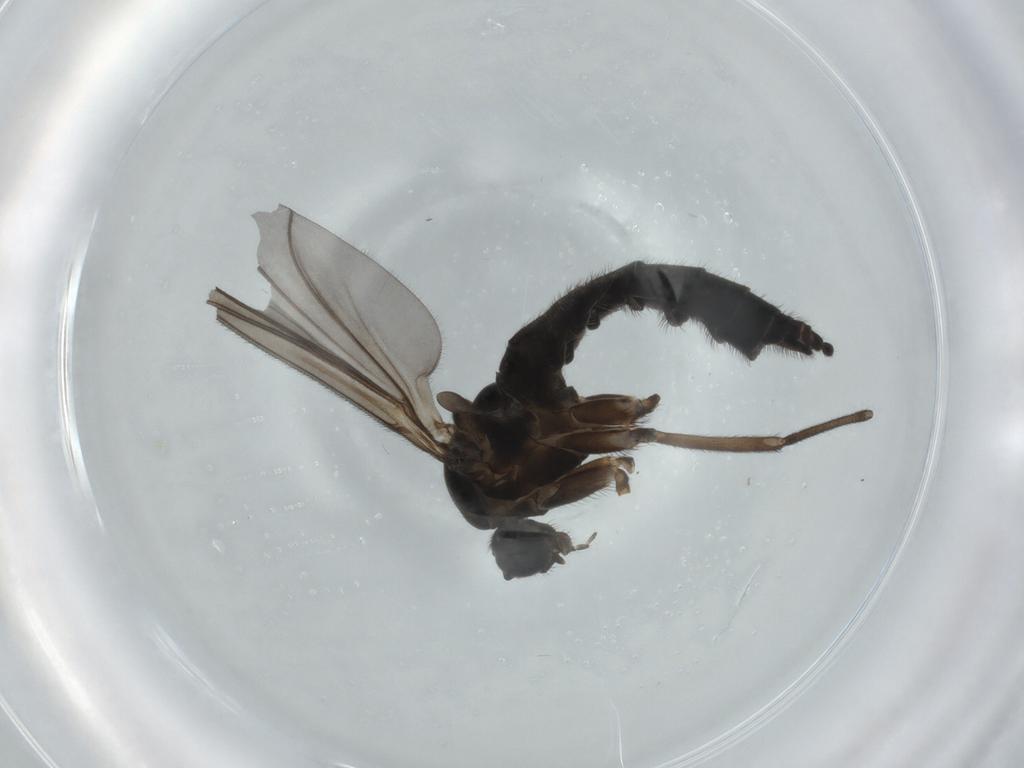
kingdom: Animalia
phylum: Arthropoda
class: Insecta
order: Diptera
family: Sciaridae
